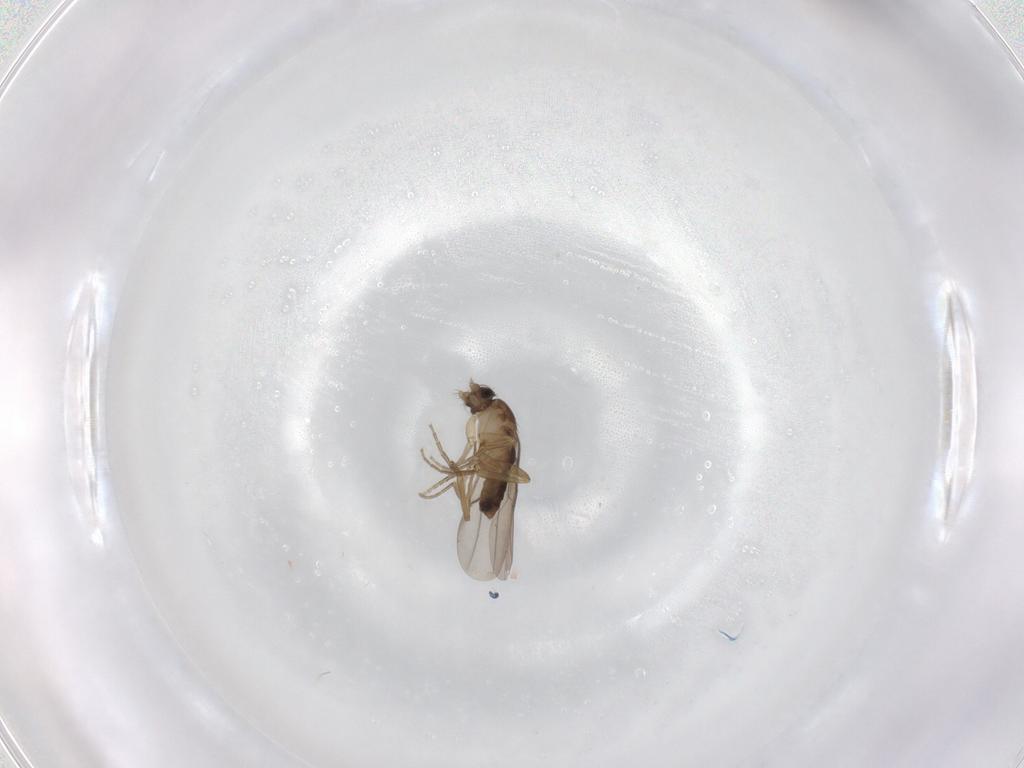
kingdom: Animalia
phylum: Arthropoda
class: Insecta
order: Diptera
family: Phoridae
